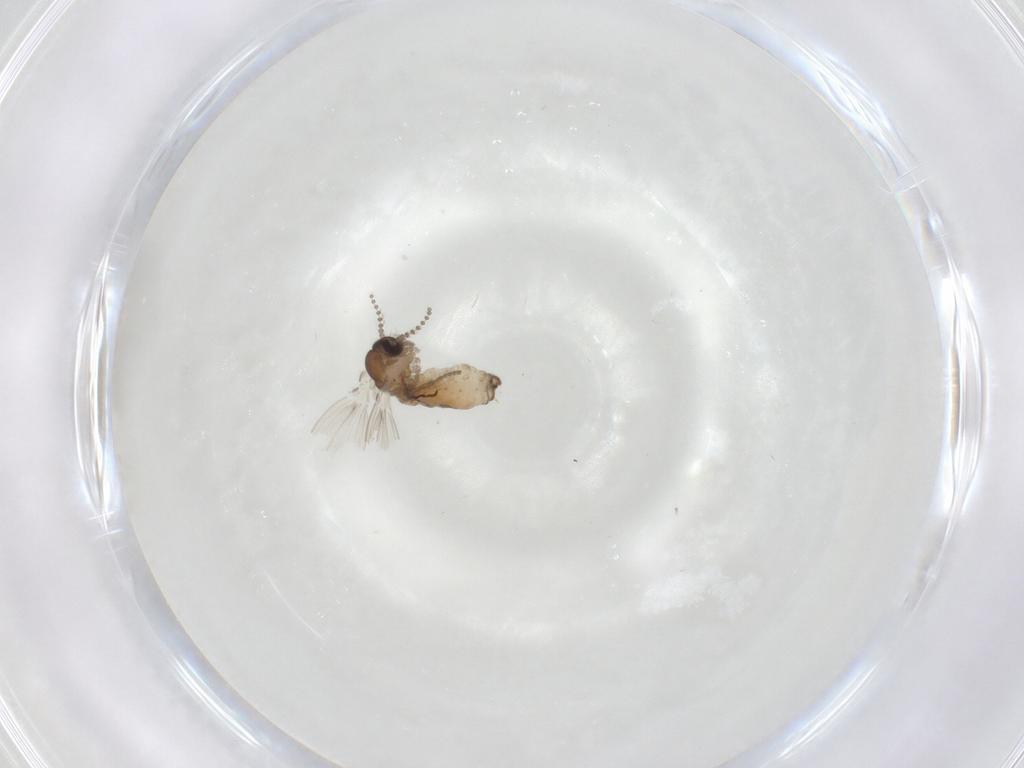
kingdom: Animalia
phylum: Arthropoda
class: Insecta
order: Diptera
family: Psychodidae
